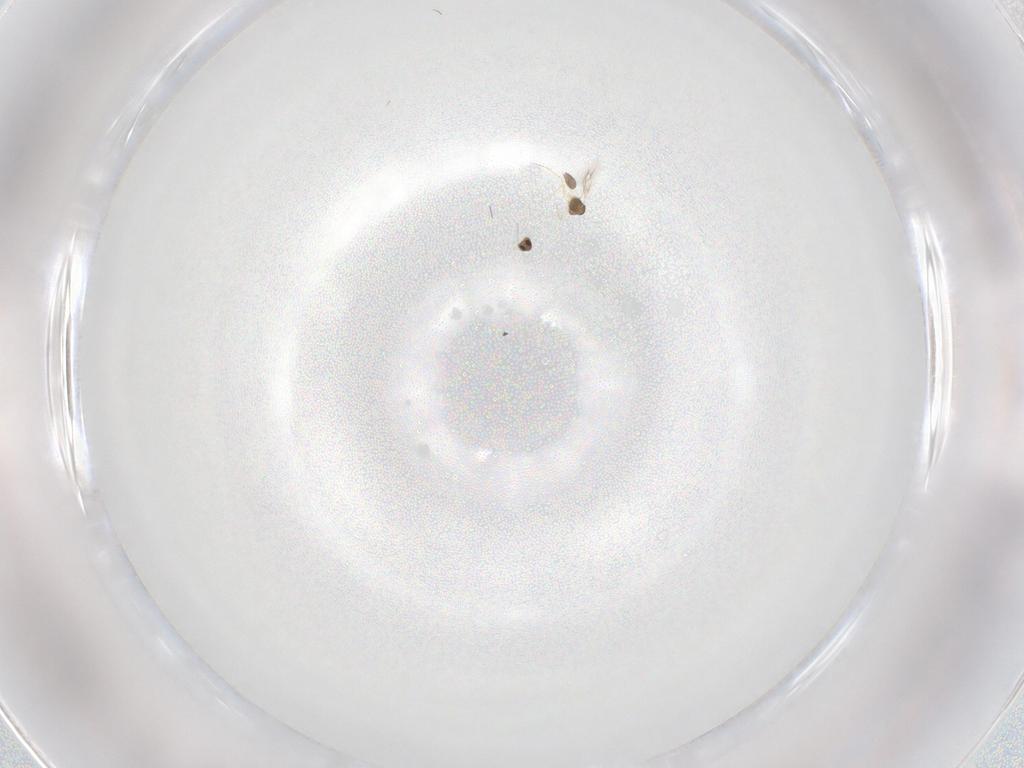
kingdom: Animalia
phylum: Arthropoda
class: Insecta
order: Hymenoptera
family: Mymarommatidae
